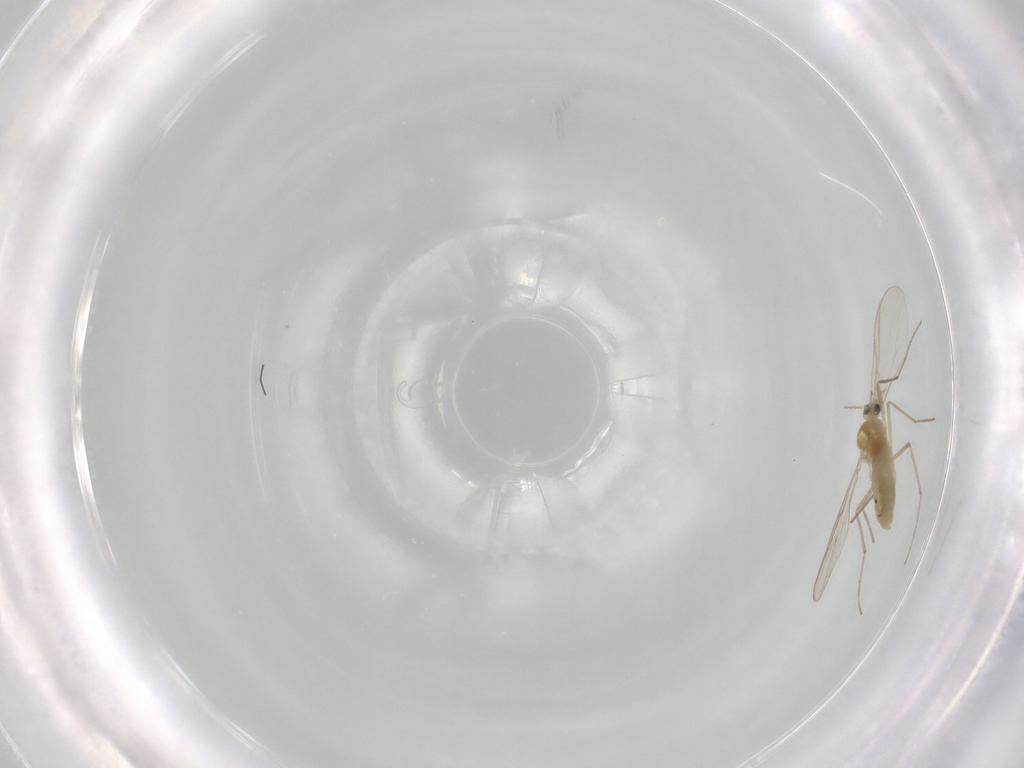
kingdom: Animalia
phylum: Arthropoda
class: Insecta
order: Diptera
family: Chironomidae
